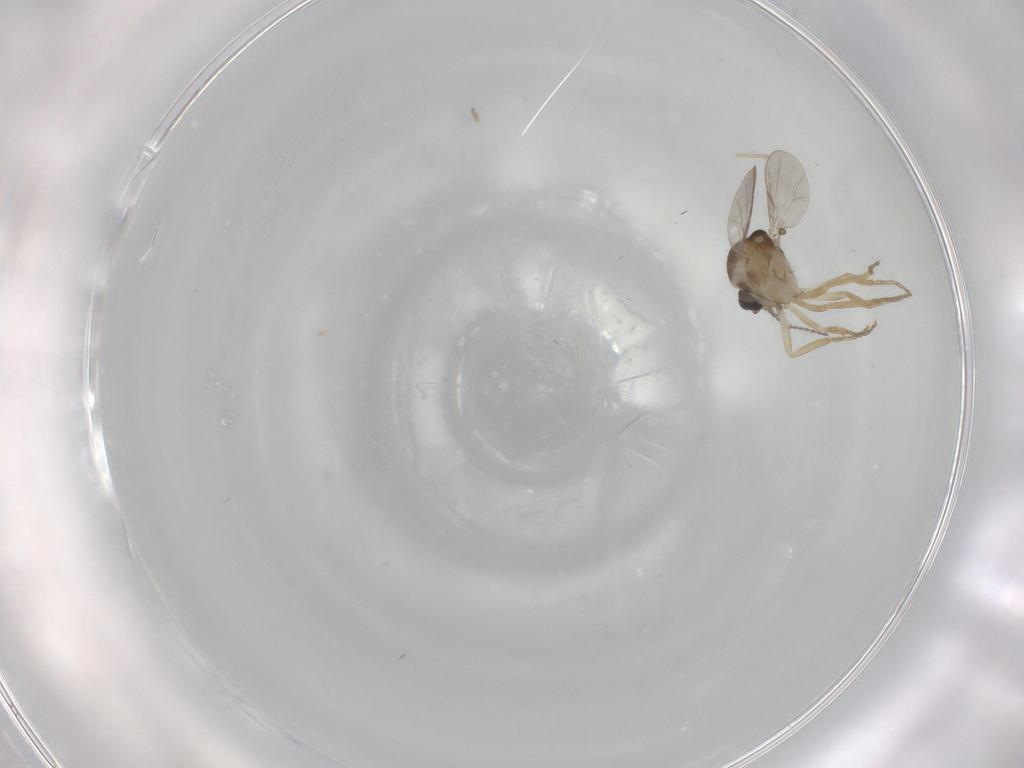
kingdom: Animalia
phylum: Arthropoda
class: Insecta
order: Diptera
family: Ceratopogonidae
